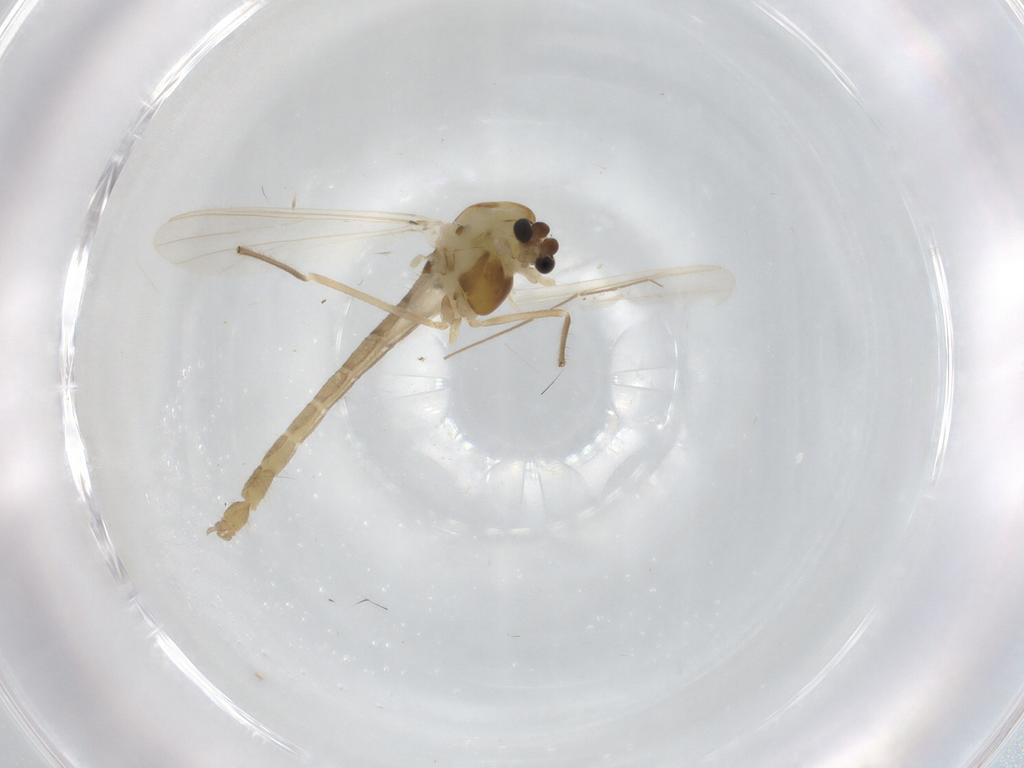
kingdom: Animalia
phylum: Arthropoda
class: Insecta
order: Diptera
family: Chironomidae
